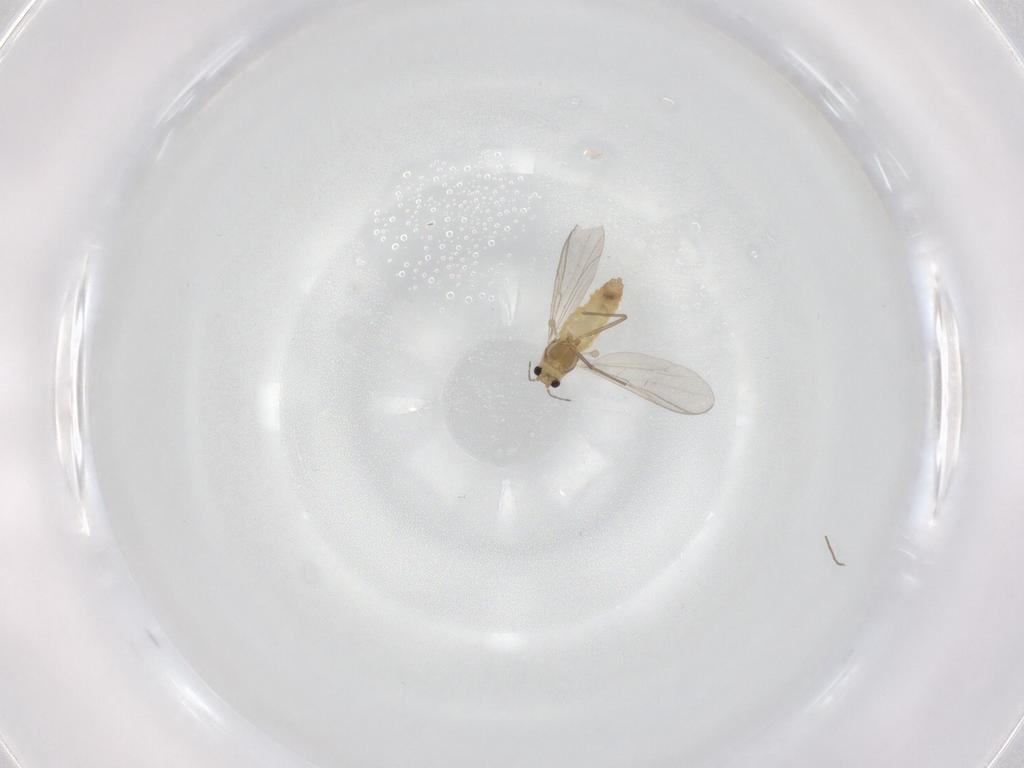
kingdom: Animalia
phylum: Arthropoda
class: Insecta
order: Diptera
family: Chironomidae
